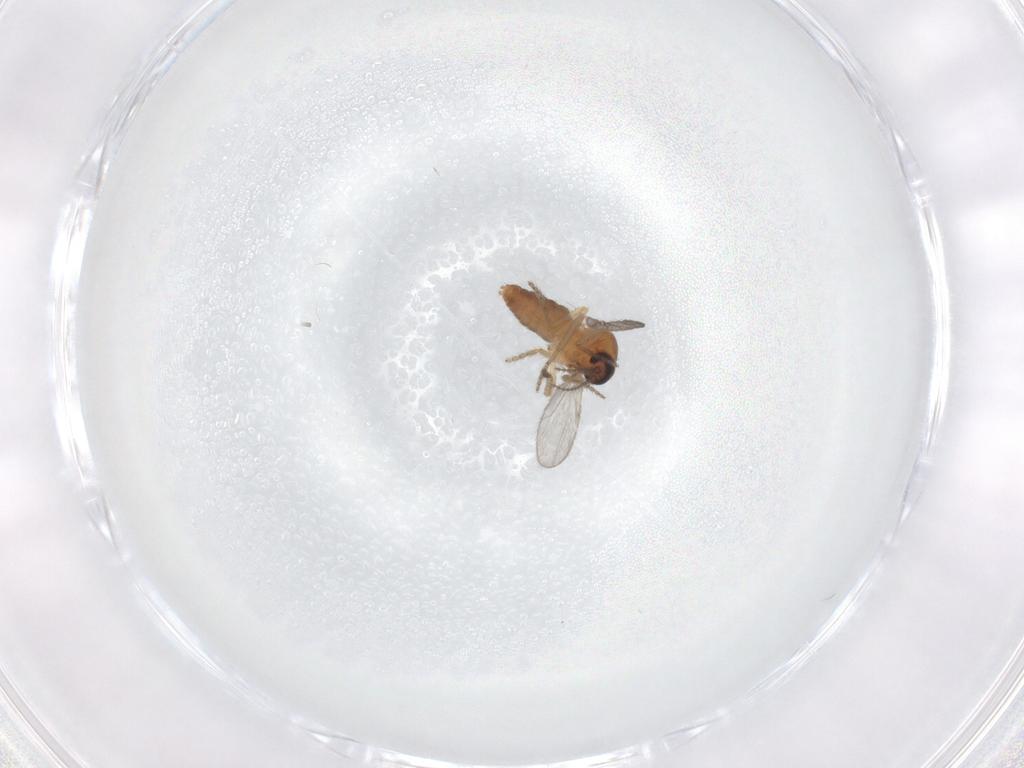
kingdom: Animalia
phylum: Arthropoda
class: Insecta
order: Diptera
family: Ceratopogonidae
